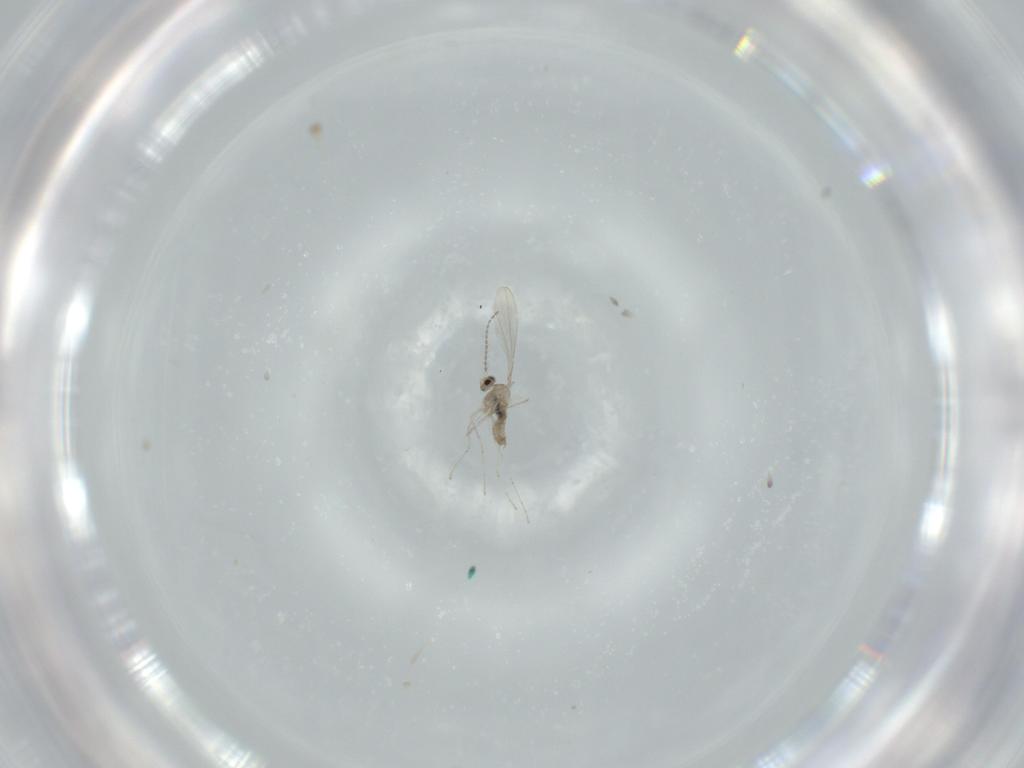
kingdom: Animalia
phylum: Arthropoda
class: Insecta
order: Diptera
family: Cecidomyiidae
